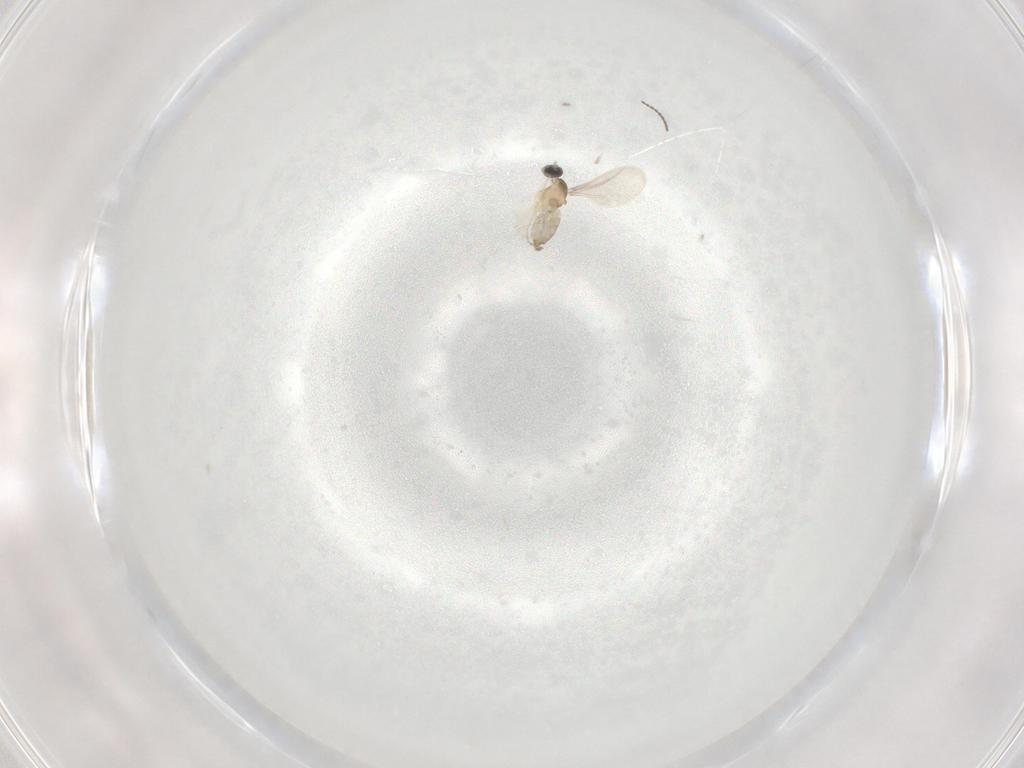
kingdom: Animalia
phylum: Arthropoda
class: Insecta
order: Diptera
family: Cecidomyiidae
